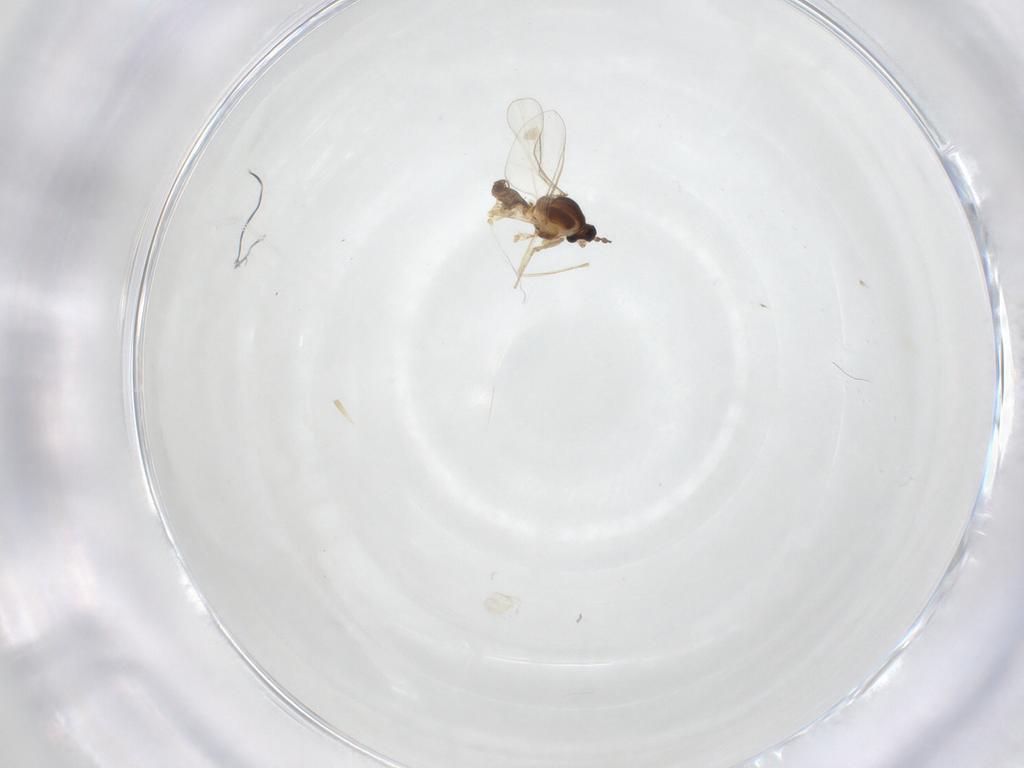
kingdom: Animalia
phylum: Arthropoda
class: Insecta
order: Diptera
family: Cecidomyiidae
